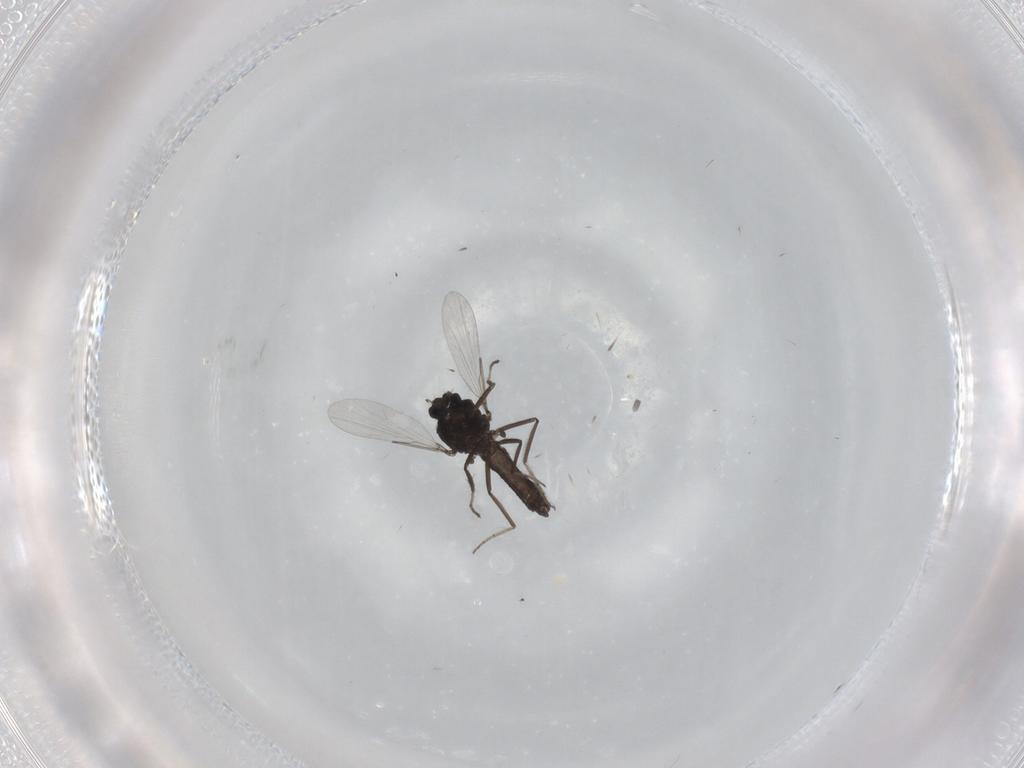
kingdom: Animalia
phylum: Arthropoda
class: Insecta
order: Diptera
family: Ceratopogonidae
